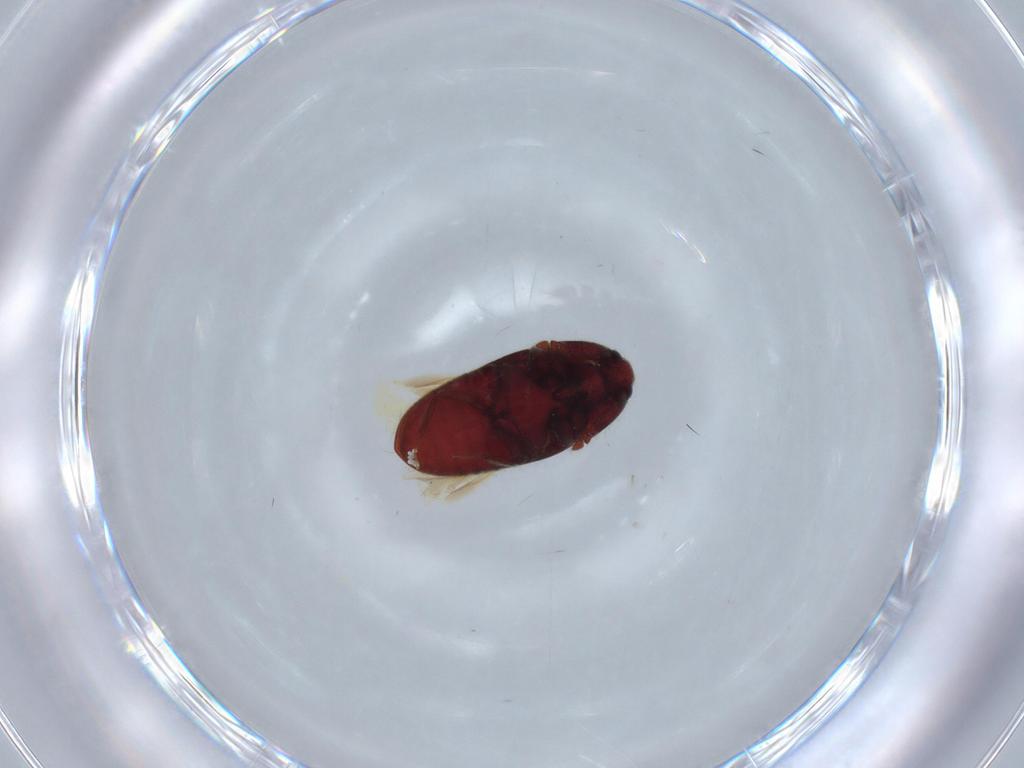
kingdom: Animalia
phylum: Arthropoda
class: Insecta
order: Coleoptera
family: Throscidae
